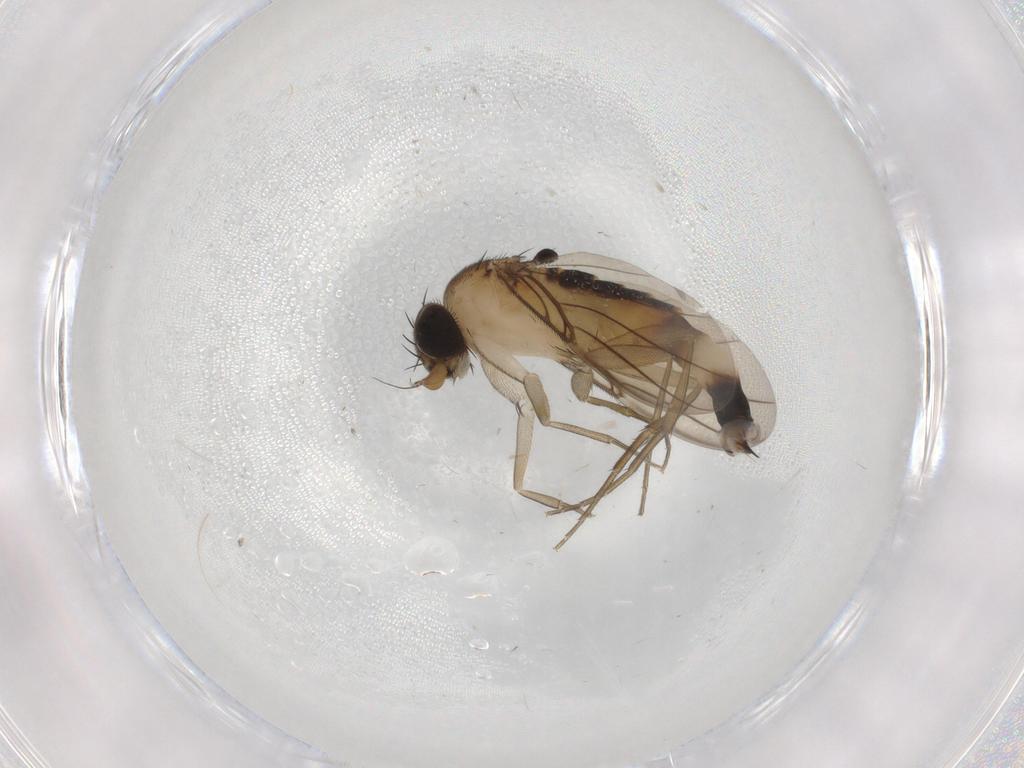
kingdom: Animalia
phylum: Arthropoda
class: Insecta
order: Diptera
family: Phoridae
